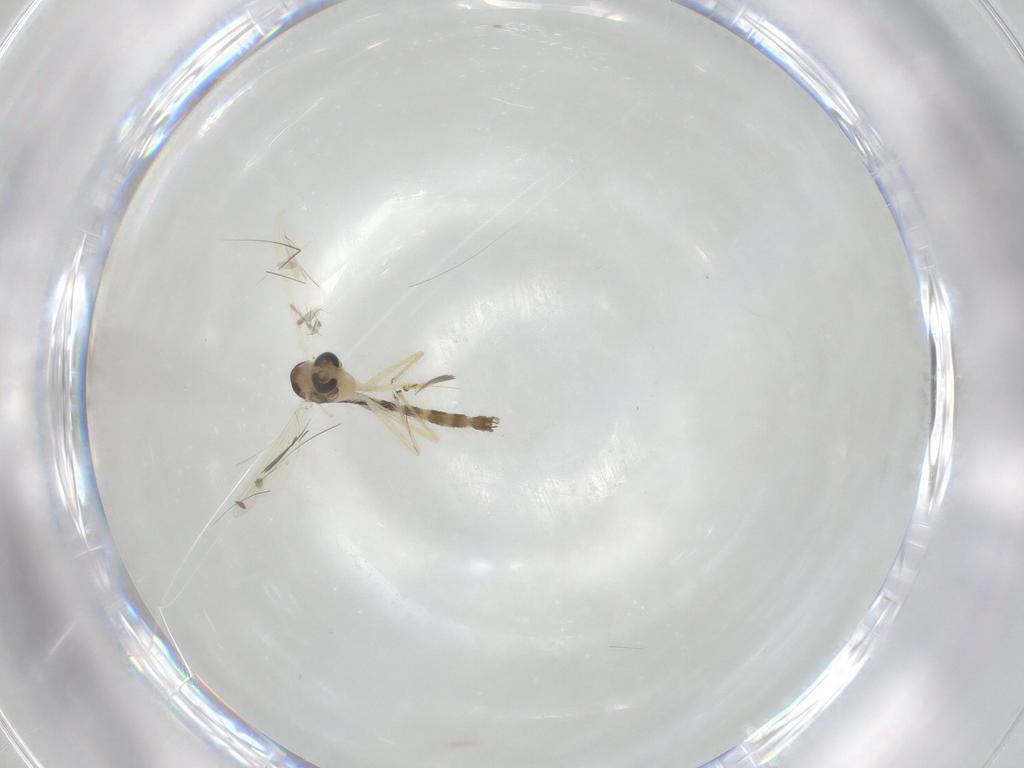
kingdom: Animalia
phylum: Arthropoda
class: Insecta
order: Diptera
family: Chironomidae
